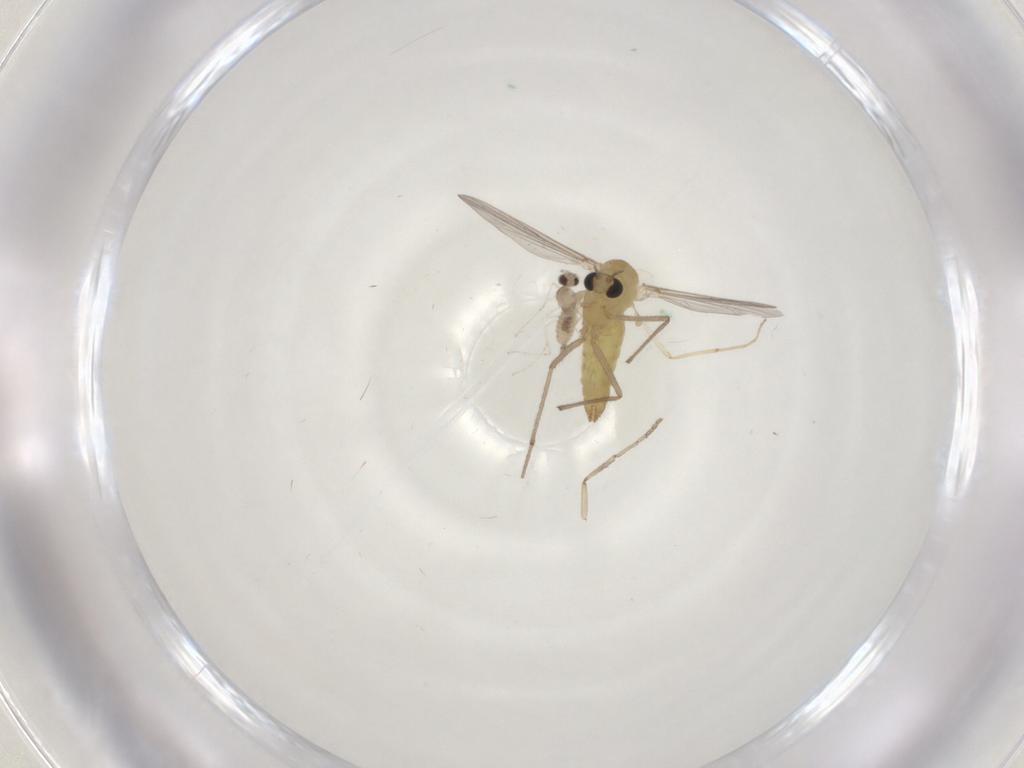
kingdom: Animalia
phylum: Arthropoda
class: Insecta
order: Diptera
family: Chironomidae
